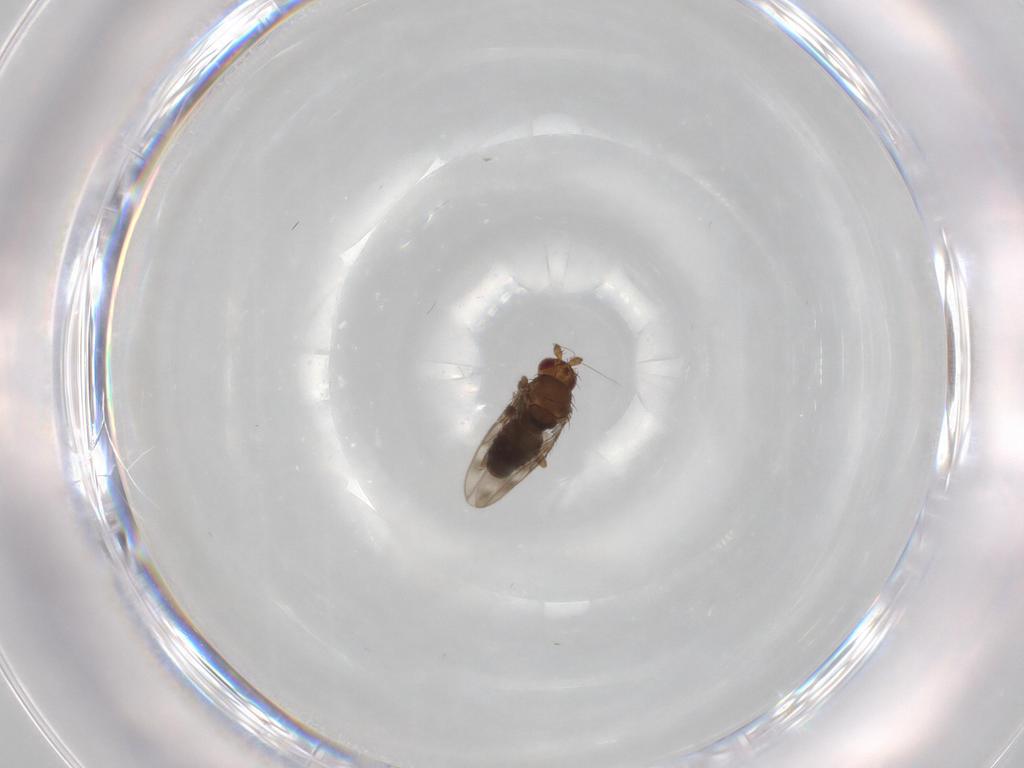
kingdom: Animalia
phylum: Arthropoda
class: Insecta
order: Diptera
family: Sphaeroceridae
